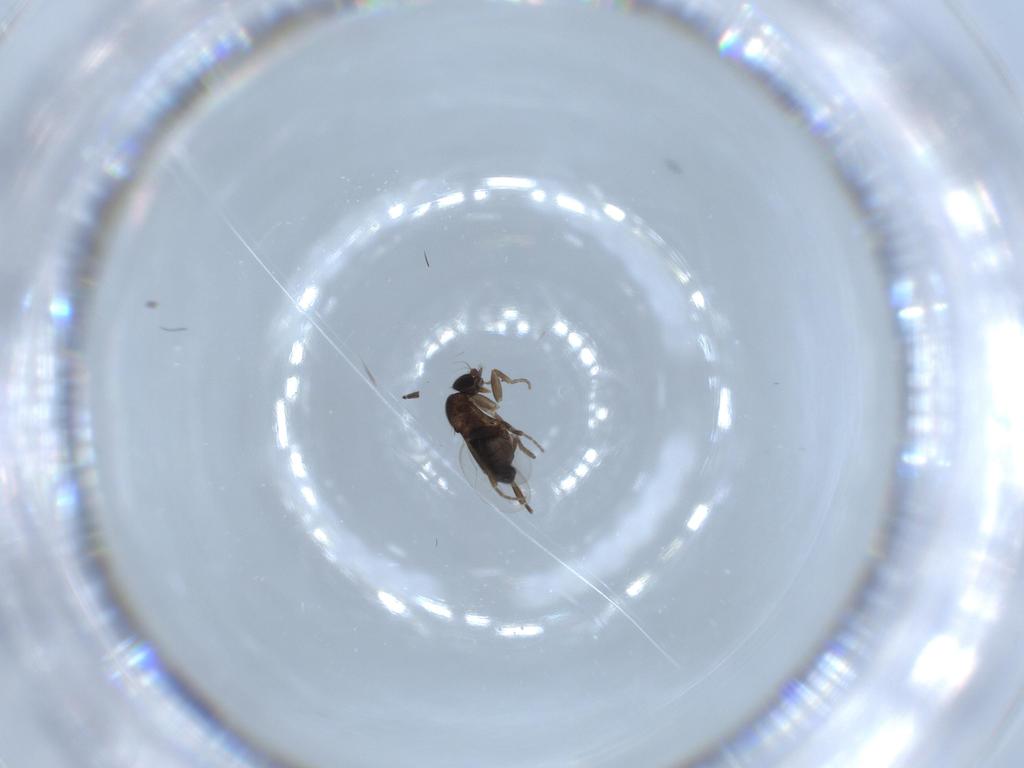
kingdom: Animalia
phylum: Arthropoda
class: Insecta
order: Diptera
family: Phoridae
